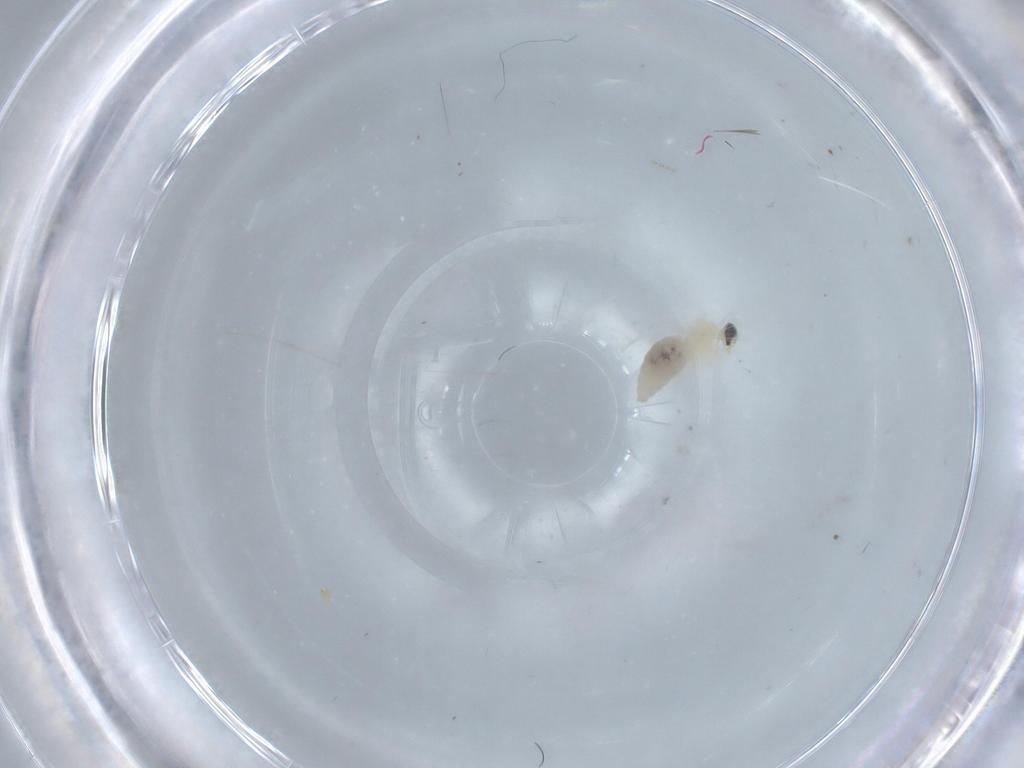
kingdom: Animalia
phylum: Arthropoda
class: Insecta
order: Diptera
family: Cecidomyiidae
